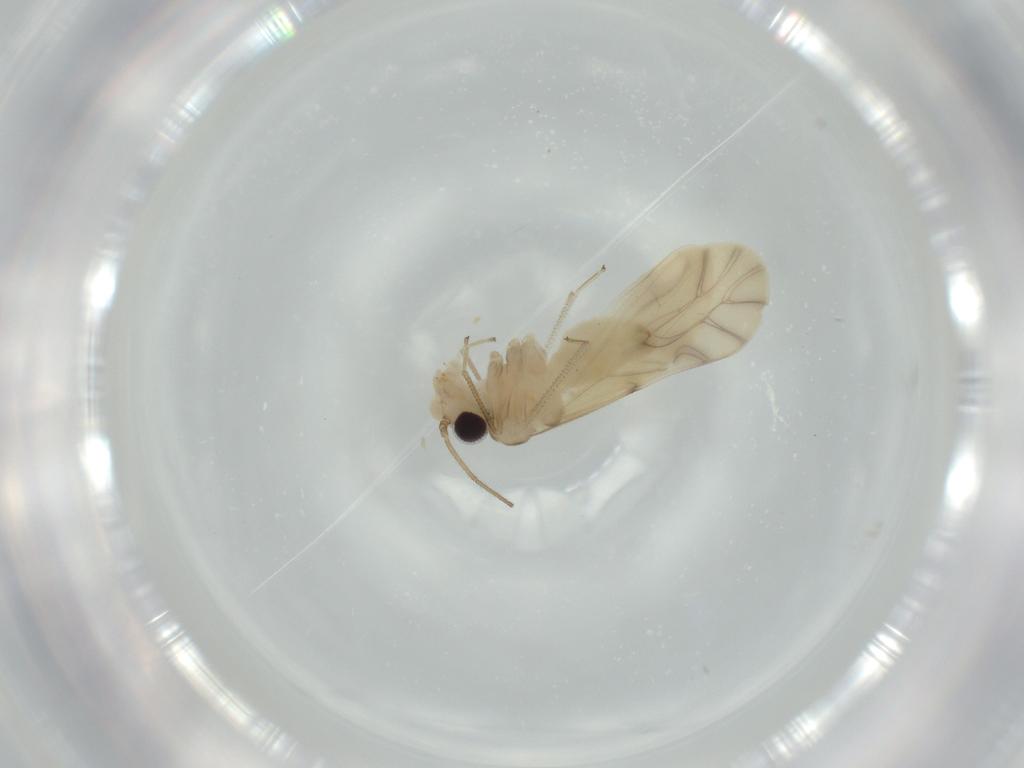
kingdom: Animalia
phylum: Arthropoda
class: Insecta
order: Psocodea
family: Caeciliusidae
